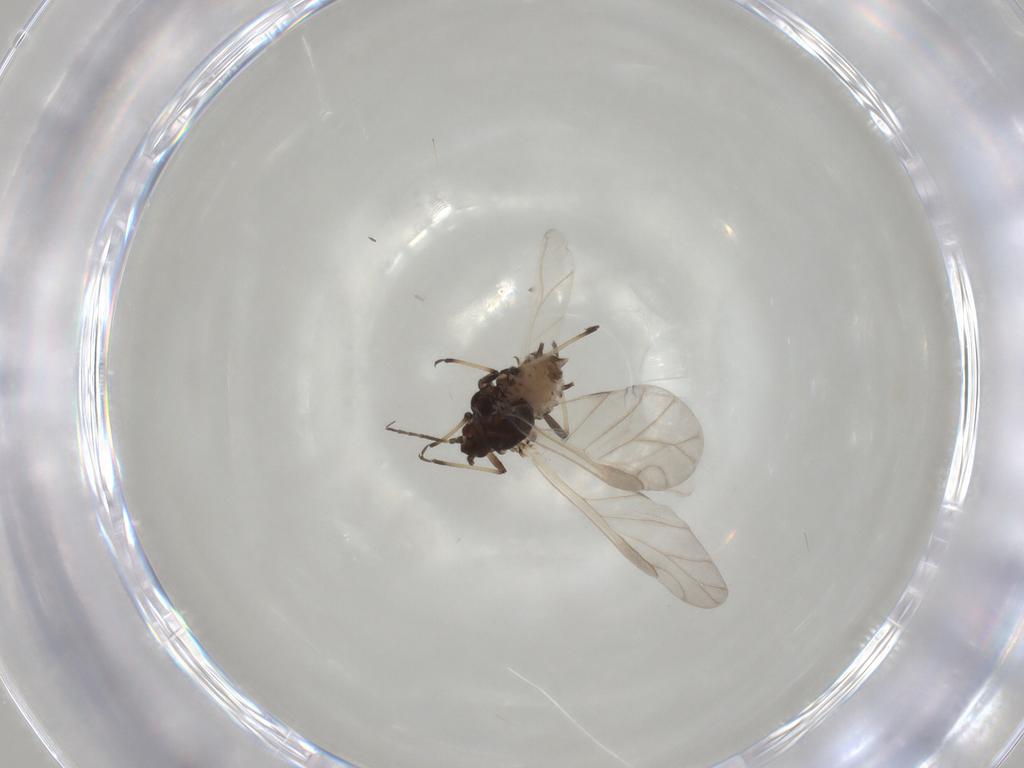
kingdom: Animalia
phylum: Arthropoda
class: Insecta
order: Hemiptera
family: Aphididae
